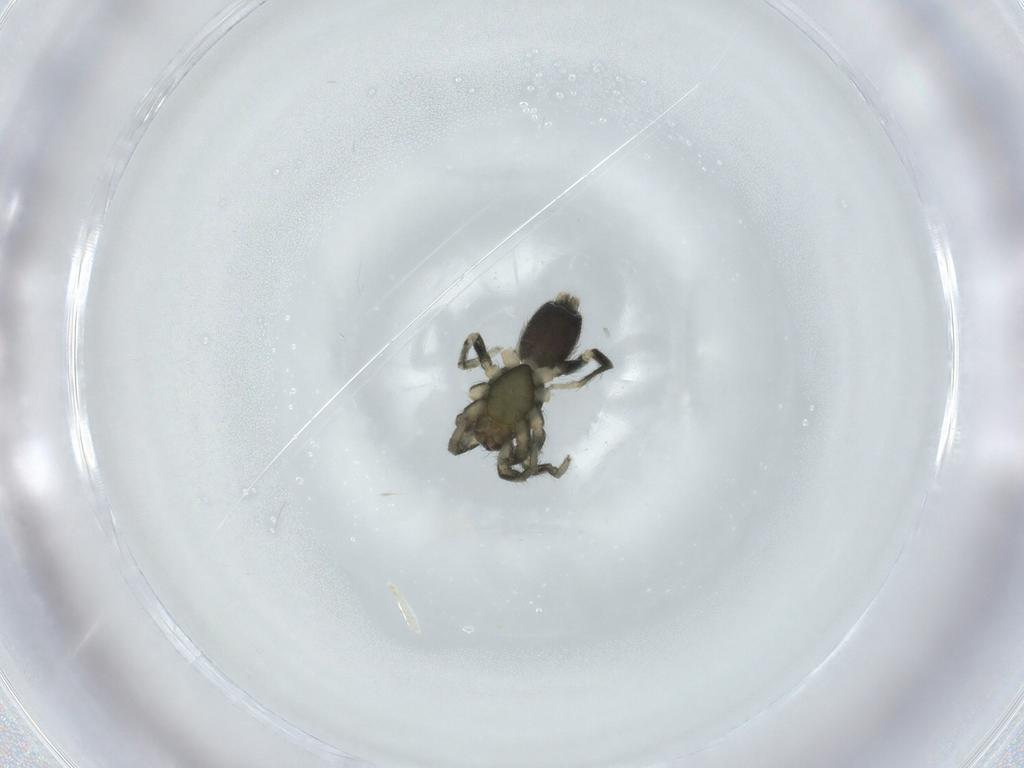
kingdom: Animalia
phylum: Arthropoda
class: Arachnida
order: Araneae
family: Gnaphosidae
